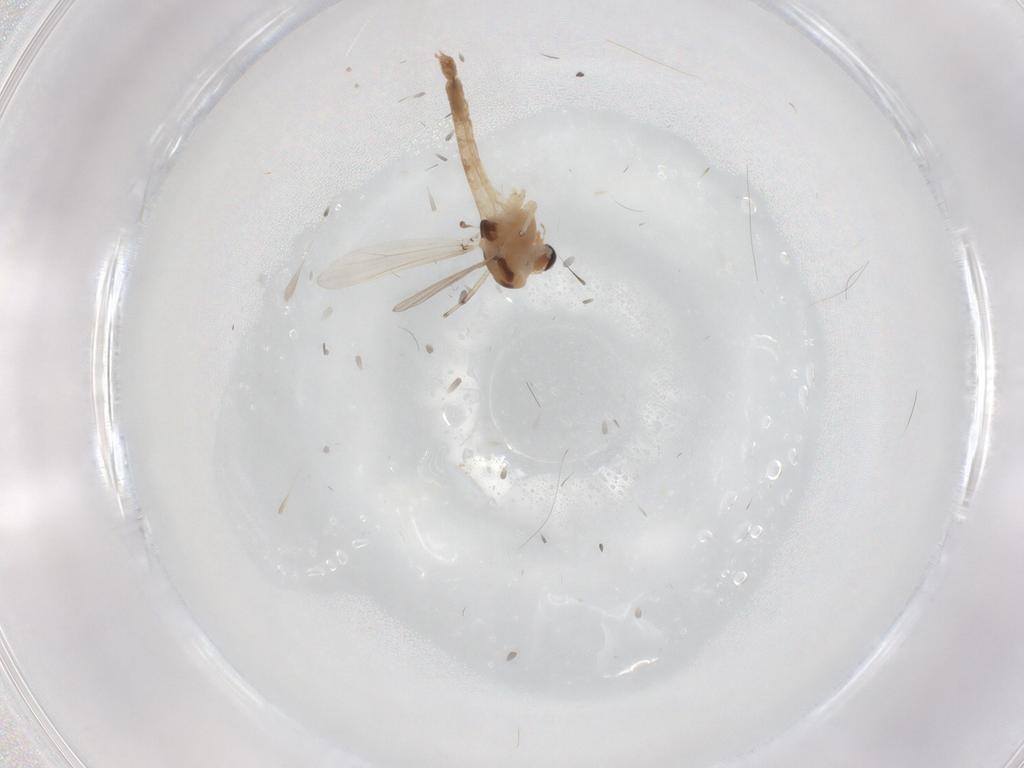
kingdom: Animalia
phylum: Arthropoda
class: Insecta
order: Diptera
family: Chironomidae
